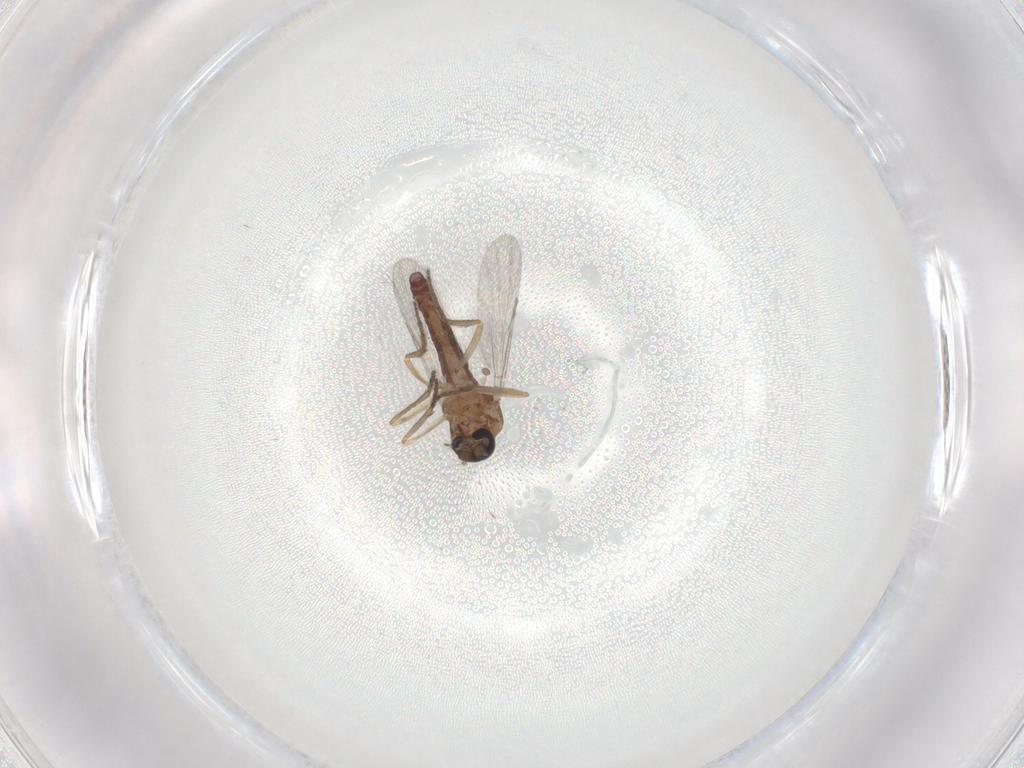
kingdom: Animalia
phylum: Arthropoda
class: Insecta
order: Diptera
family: Ceratopogonidae
